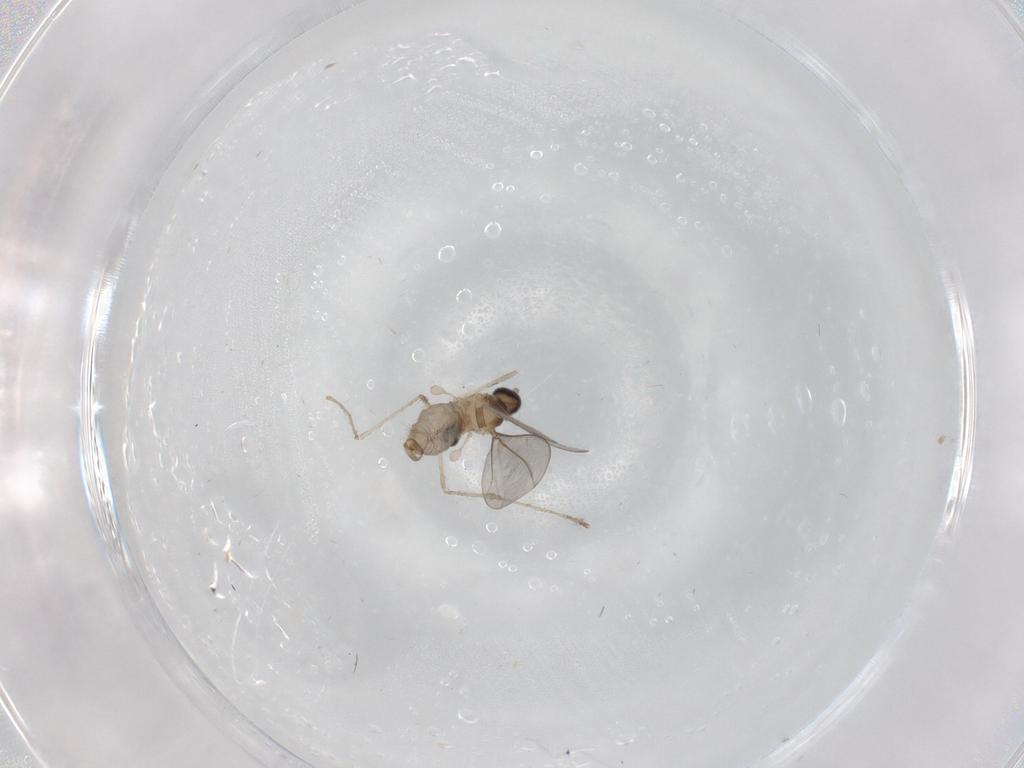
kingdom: Animalia
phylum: Arthropoda
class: Insecta
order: Diptera
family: Cecidomyiidae
